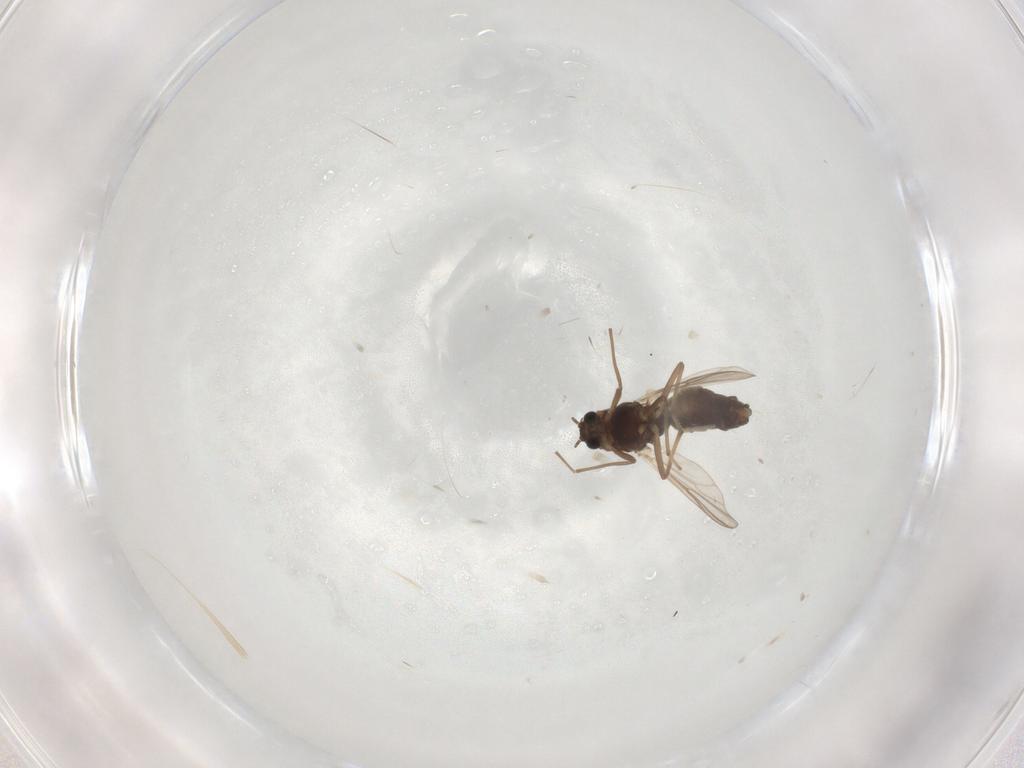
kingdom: Animalia
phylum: Arthropoda
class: Insecta
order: Diptera
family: Chironomidae
